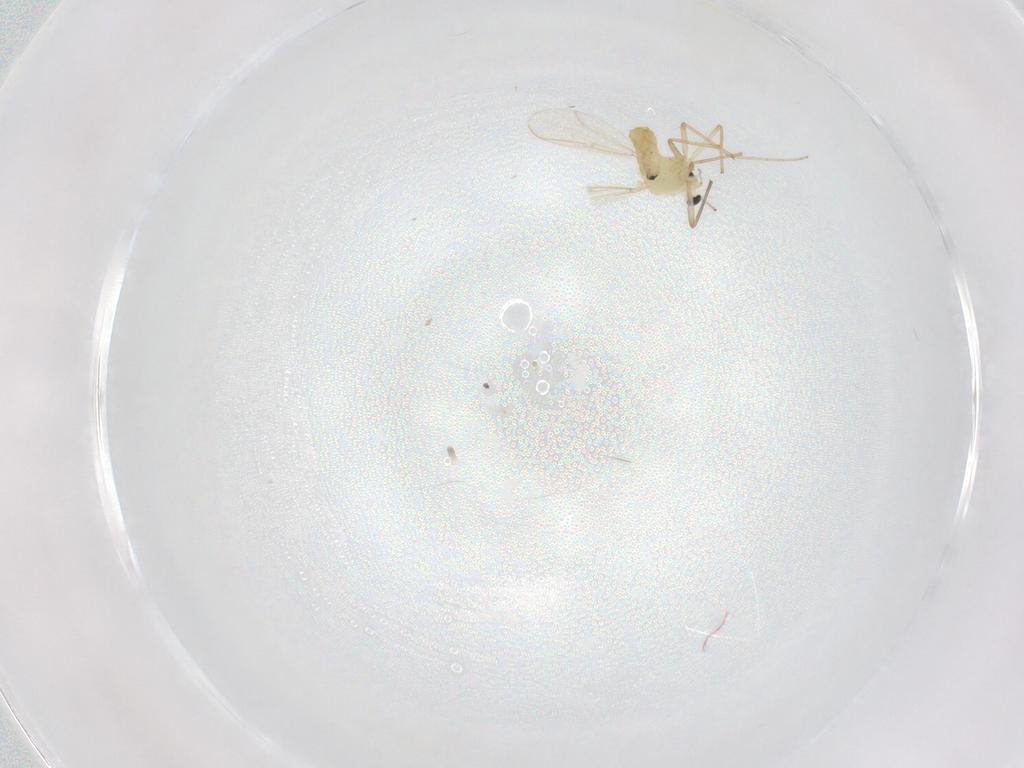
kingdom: Animalia
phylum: Arthropoda
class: Insecta
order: Diptera
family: Chironomidae
